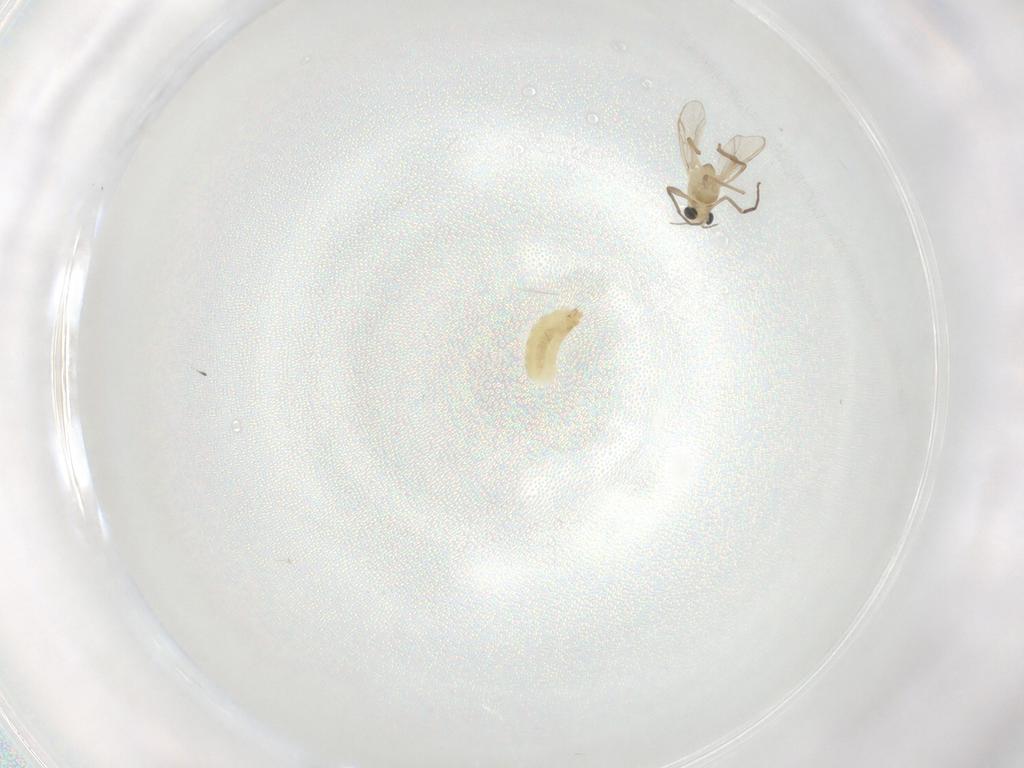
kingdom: Animalia
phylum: Arthropoda
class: Insecta
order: Diptera
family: Chironomidae
